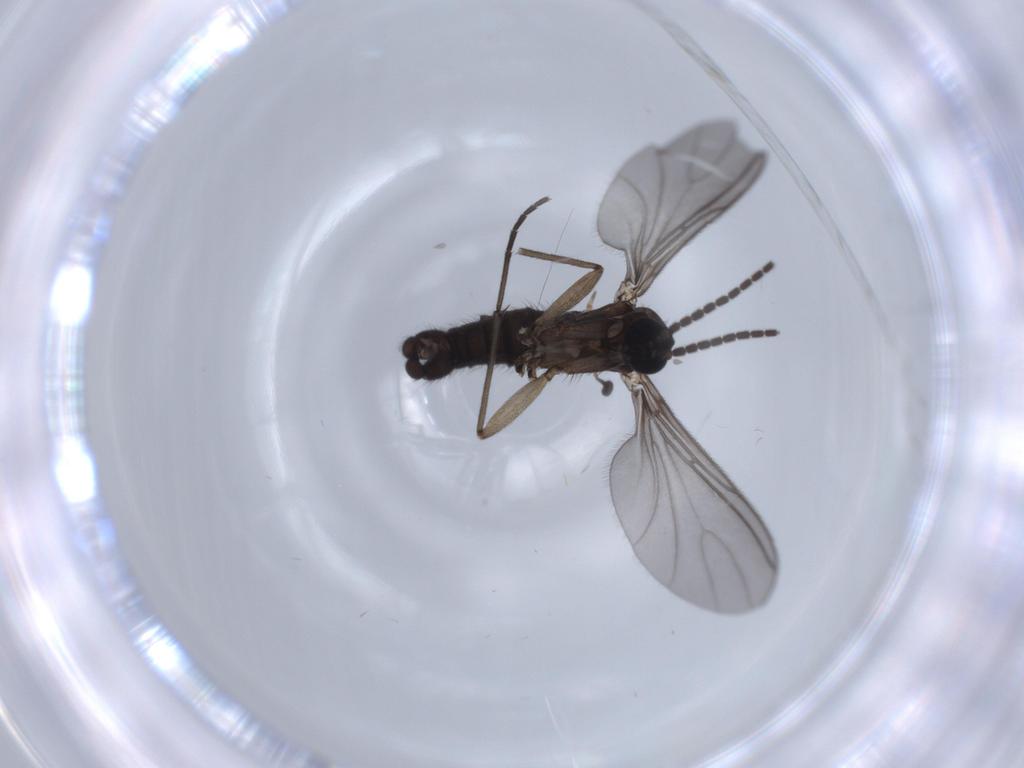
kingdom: Animalia
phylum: Arthropoda
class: Insecta
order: Diptera
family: Sciaridae
